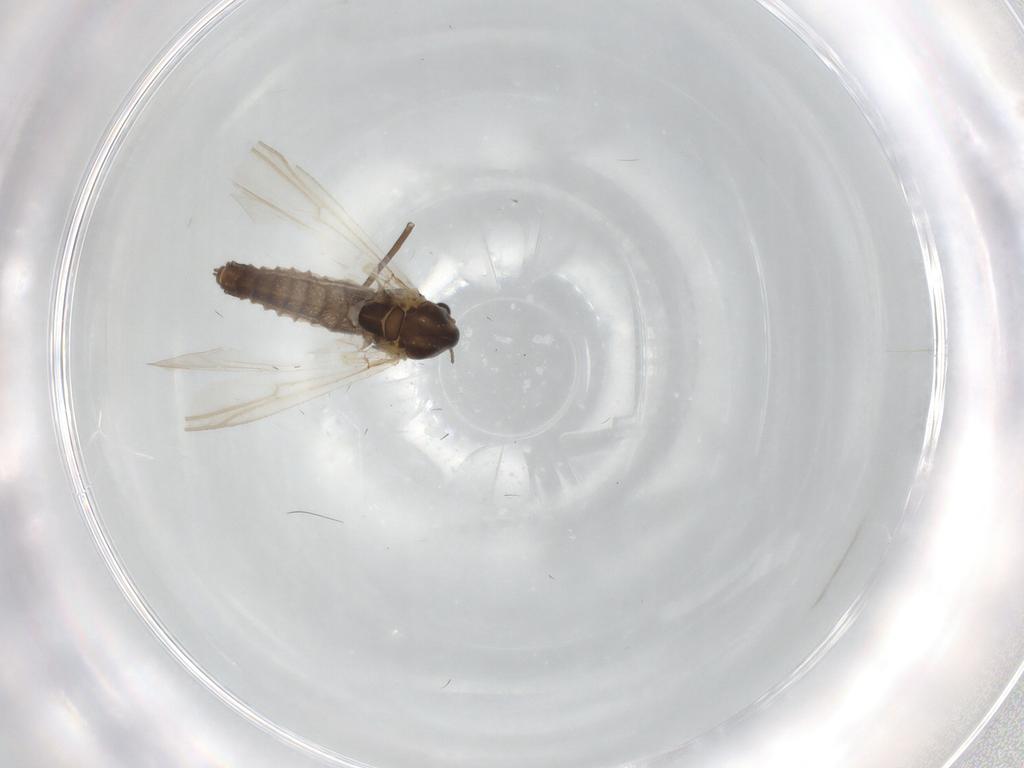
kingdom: Animalia
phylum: Arthropoda
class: Insecta
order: Diptera
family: Chironomidae
